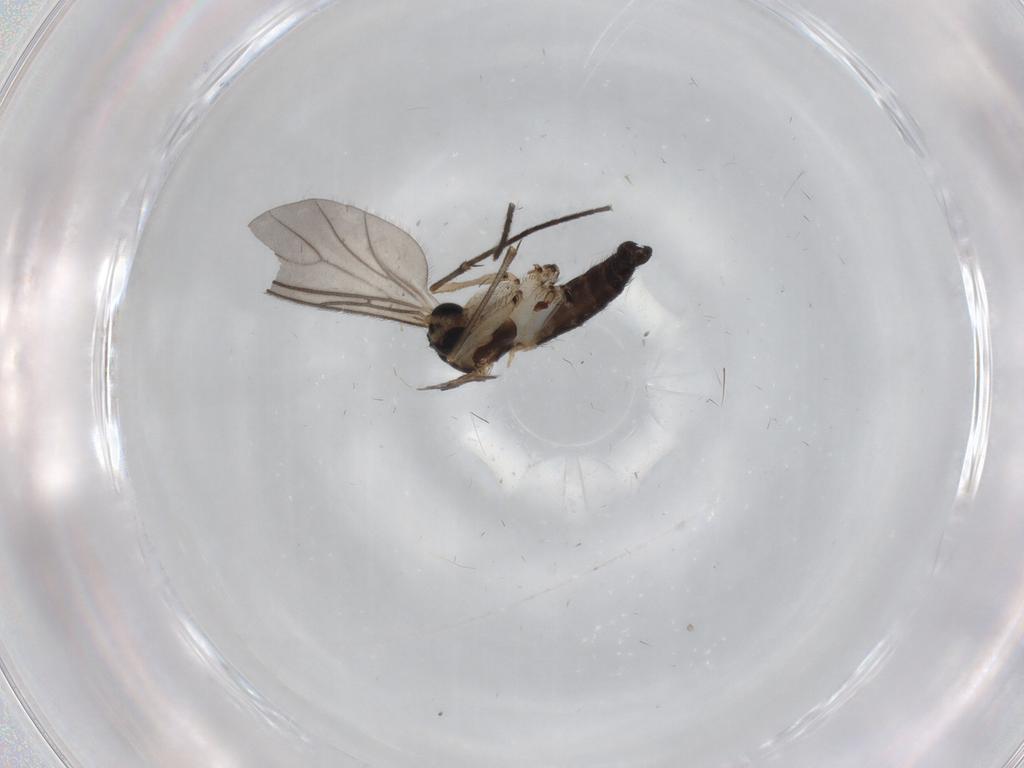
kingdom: Animalia
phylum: Arthropoda
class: Insecta
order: Diptera
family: Sciaridae
